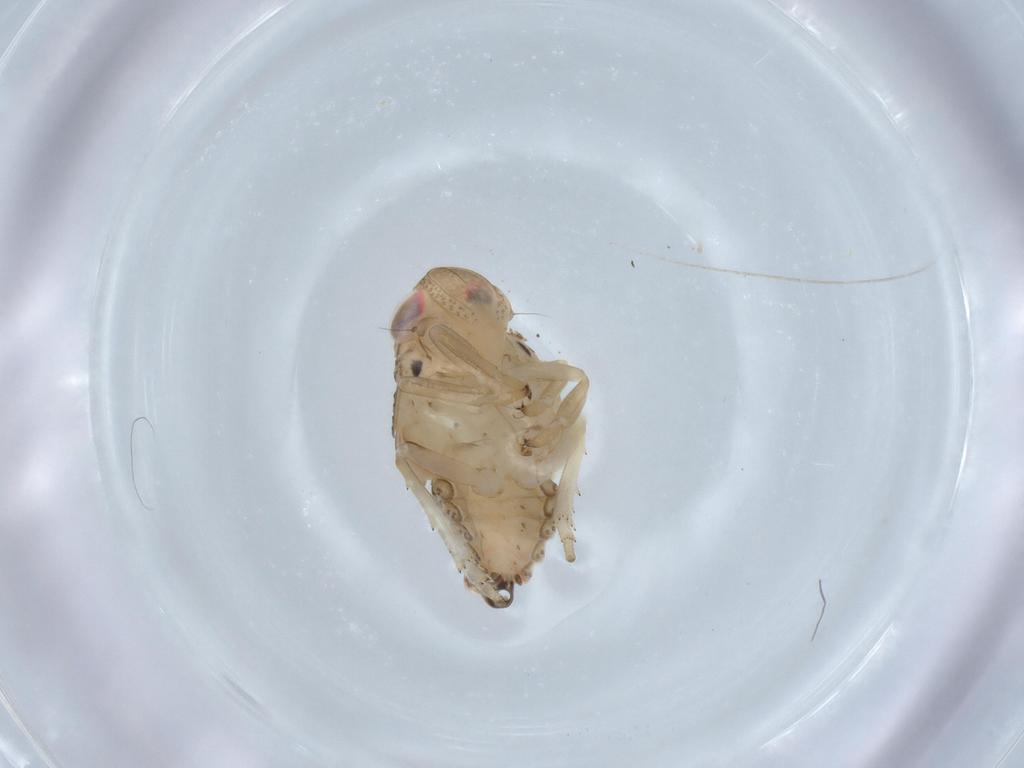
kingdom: Animalia
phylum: Arthropoda
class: Insecta
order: Hemiptera
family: Issidae
